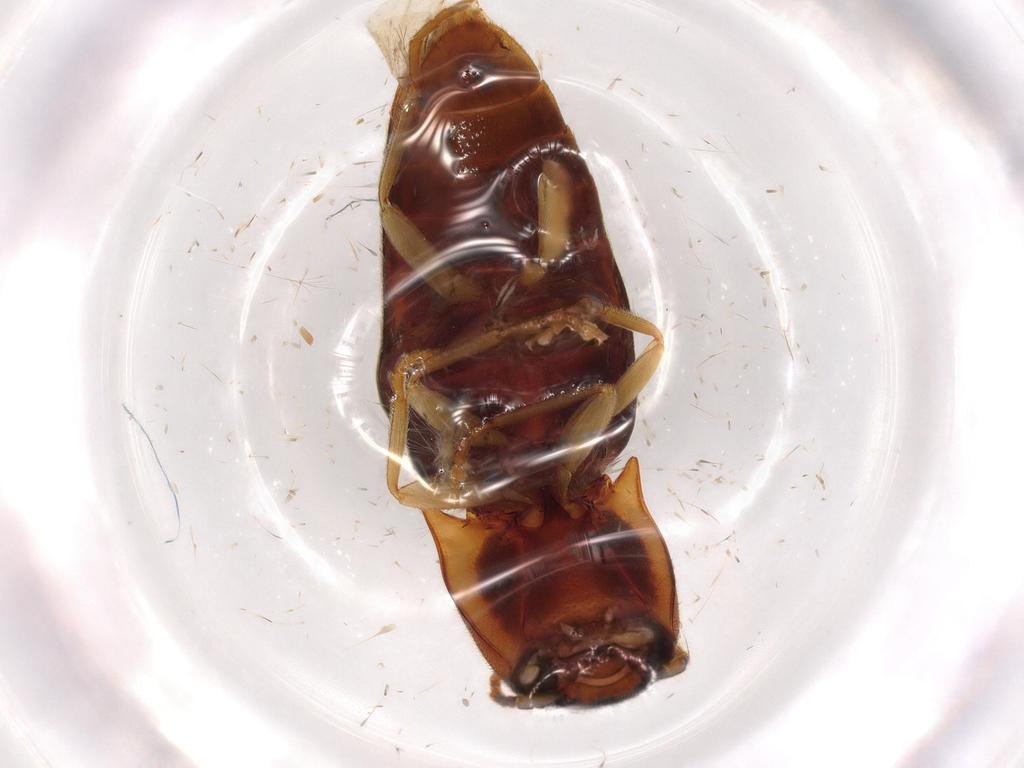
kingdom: Animalia
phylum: Arthropoda
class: Insecta
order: Coleoptera
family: Elateridae
